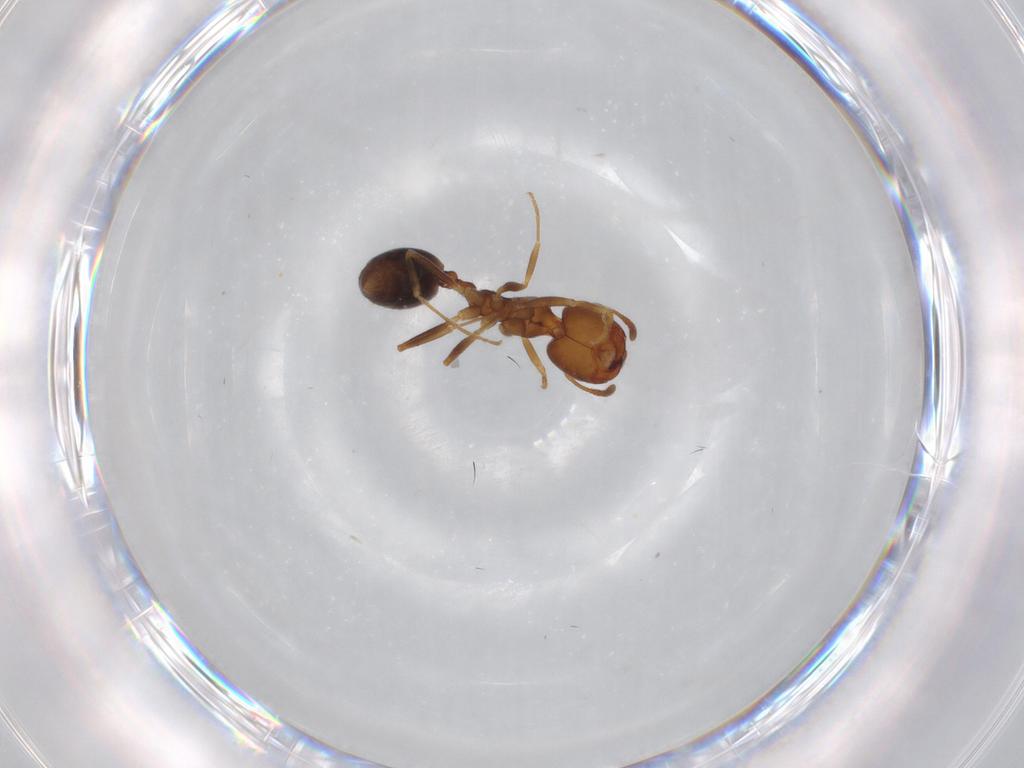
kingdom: Animalia
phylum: Arthropoda
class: Insecta
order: Hymenoptera
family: Formicidae
